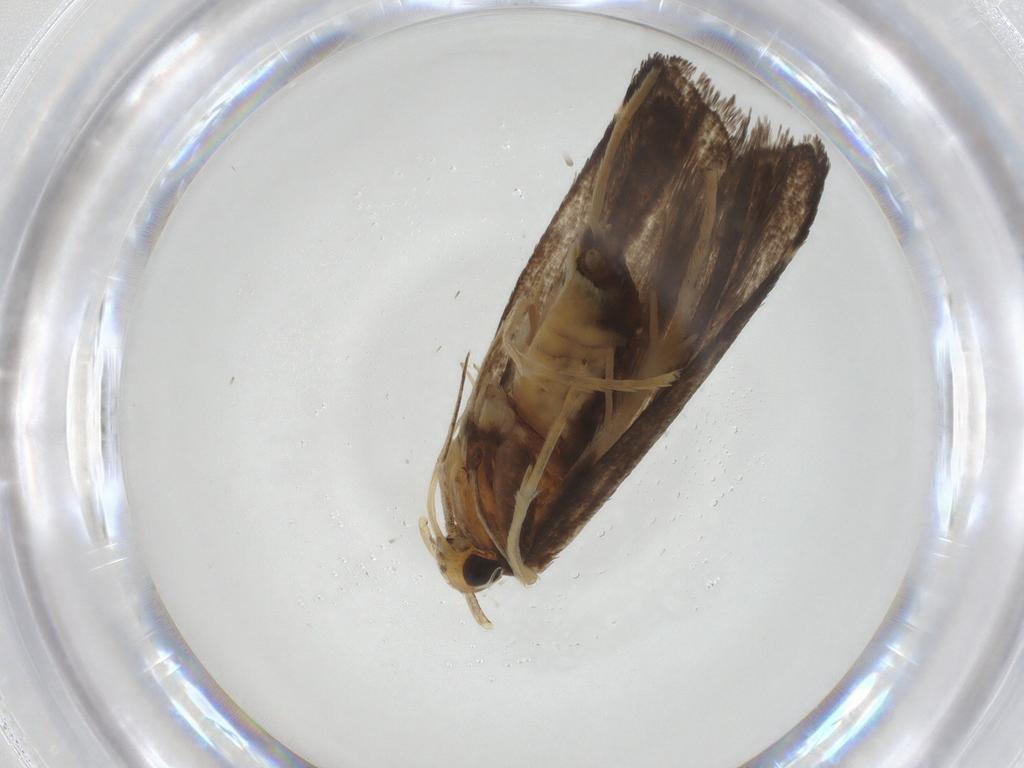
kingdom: Animalia
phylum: Arthropoda
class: Insecta
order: Lepidoptera
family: Lecithoceridae
